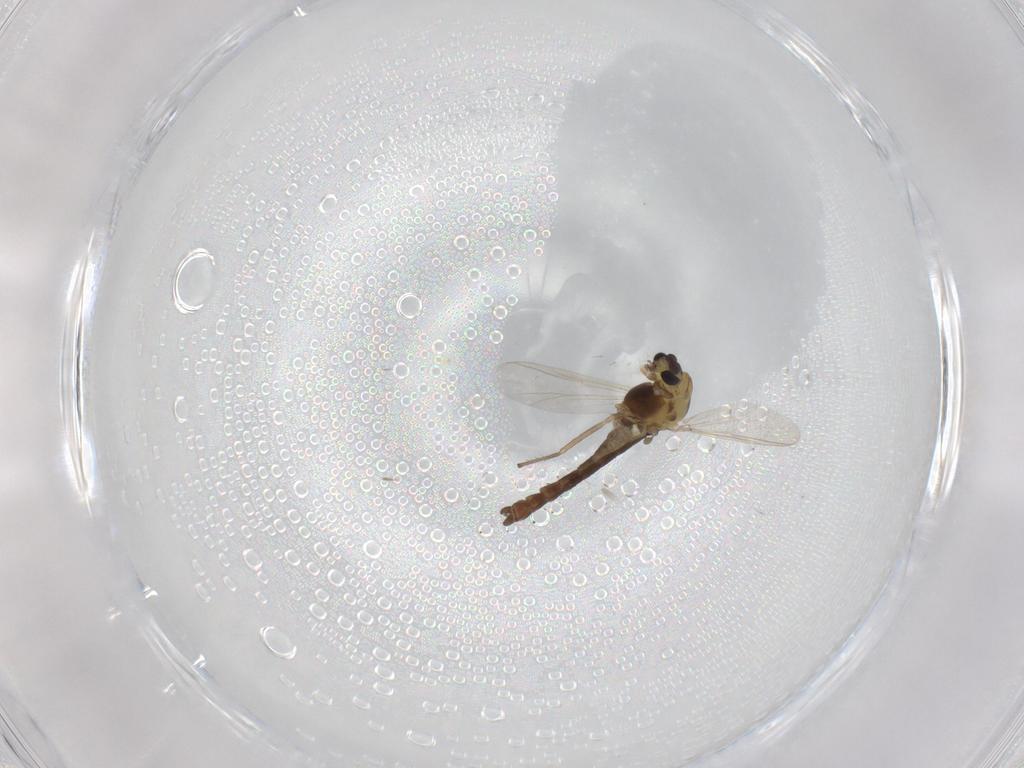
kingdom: Animalia
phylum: Arthropoda
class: Insecta
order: Diptera
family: Chironomidae
